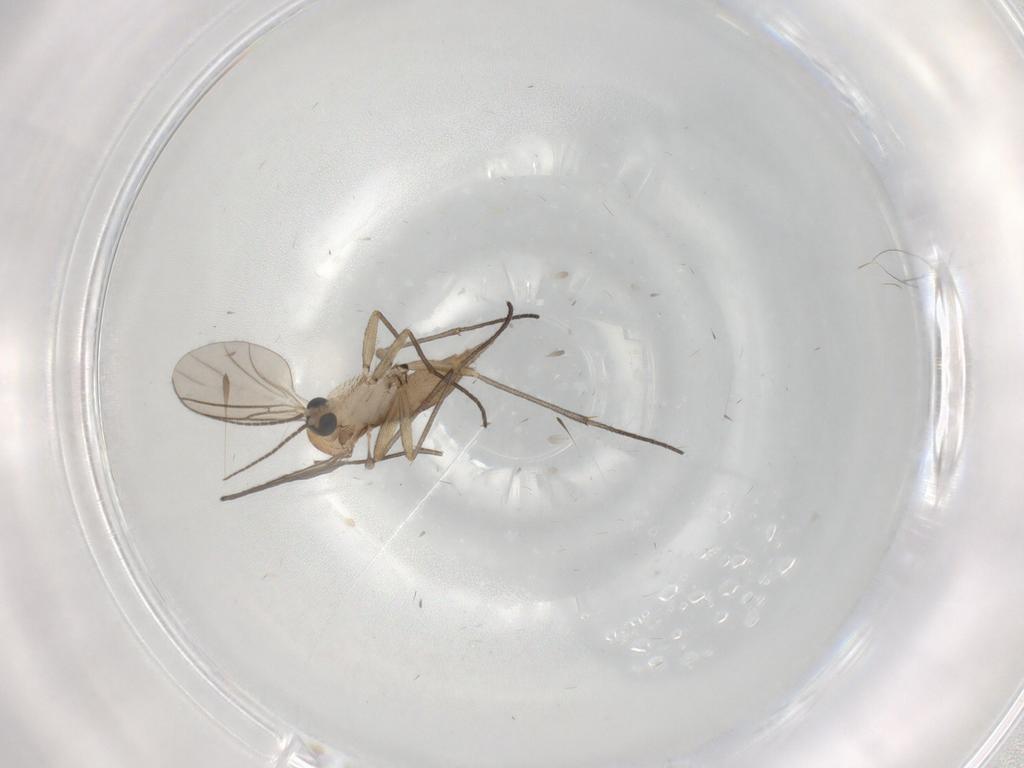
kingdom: Animalia
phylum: Arthropoda
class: Insecta
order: Diptera
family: Sciaridae
